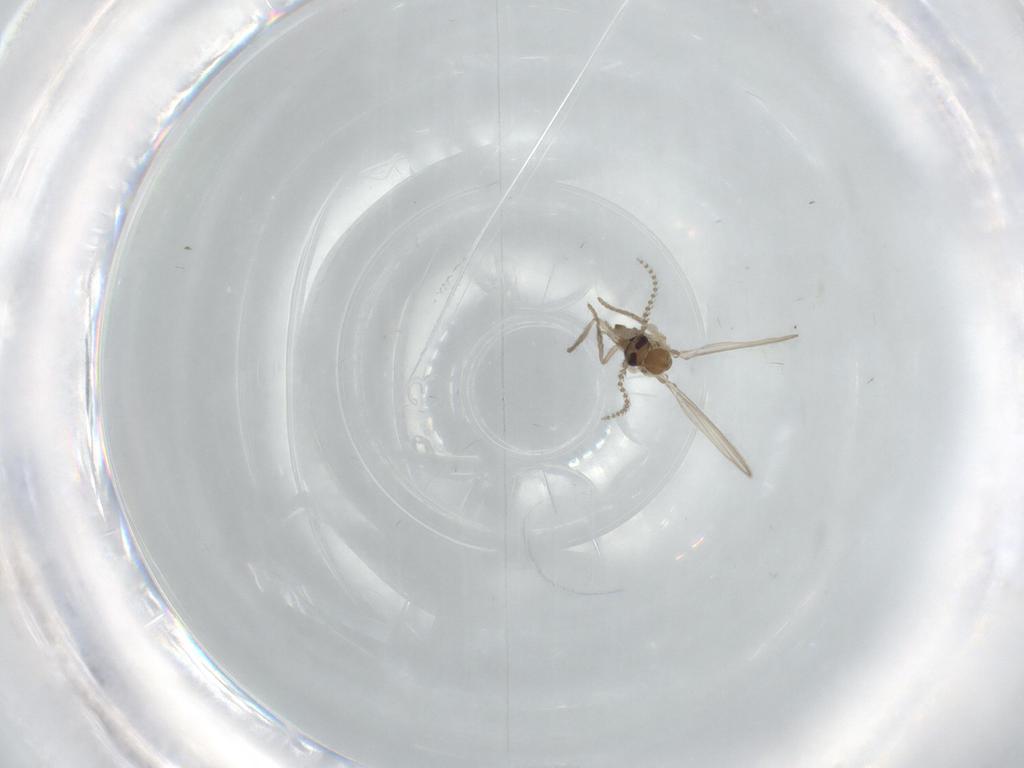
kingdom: Animalia
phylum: Arthropoda
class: Insecta
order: Diptera
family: Psychodidae
